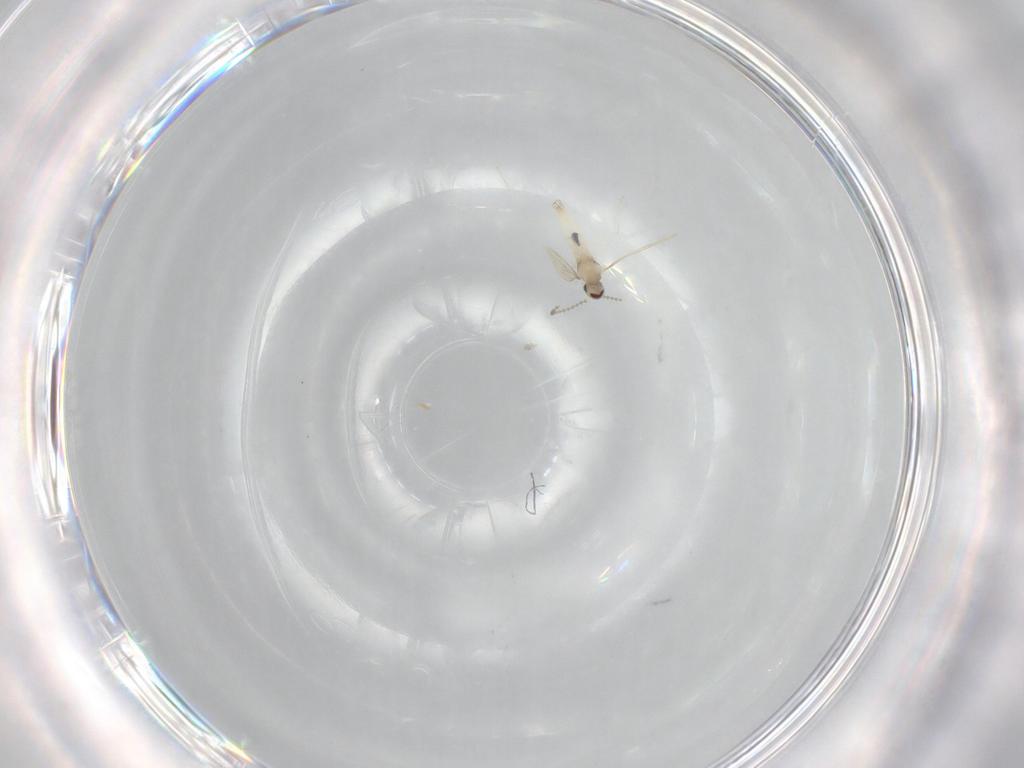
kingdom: Animalia
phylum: Arthropoda
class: Insecta
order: Diptera
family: Cecidomyiidae
